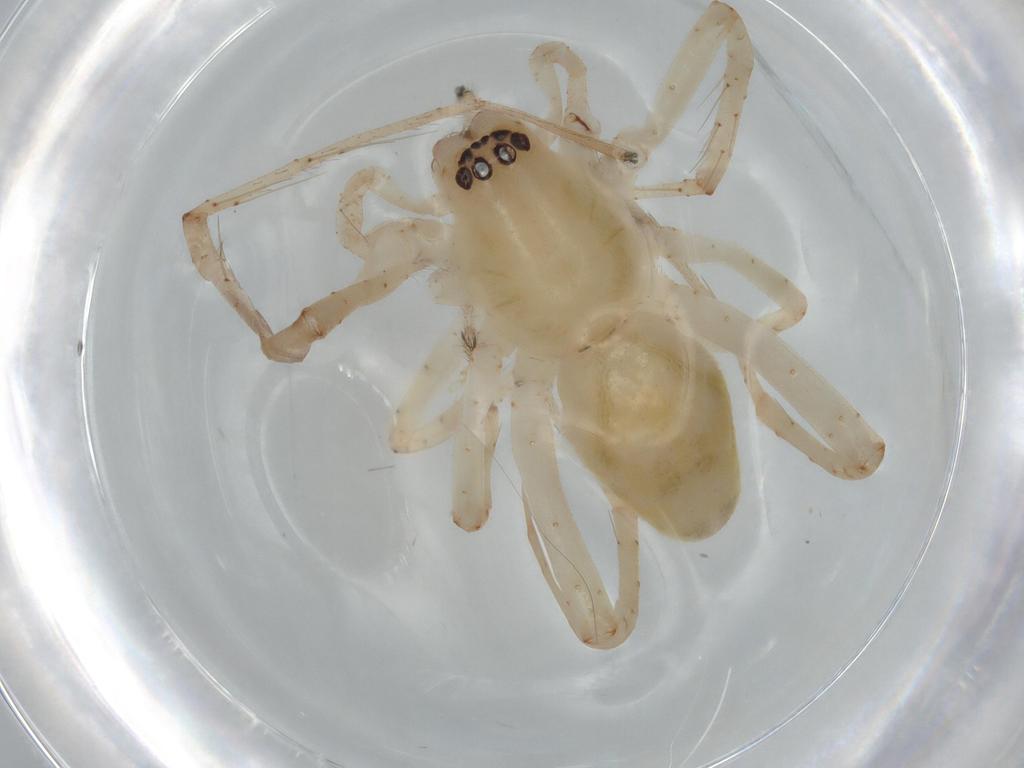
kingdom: Animalia
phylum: Arthropoda
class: Arachnida
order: Araneae
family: Anyphaenidae
